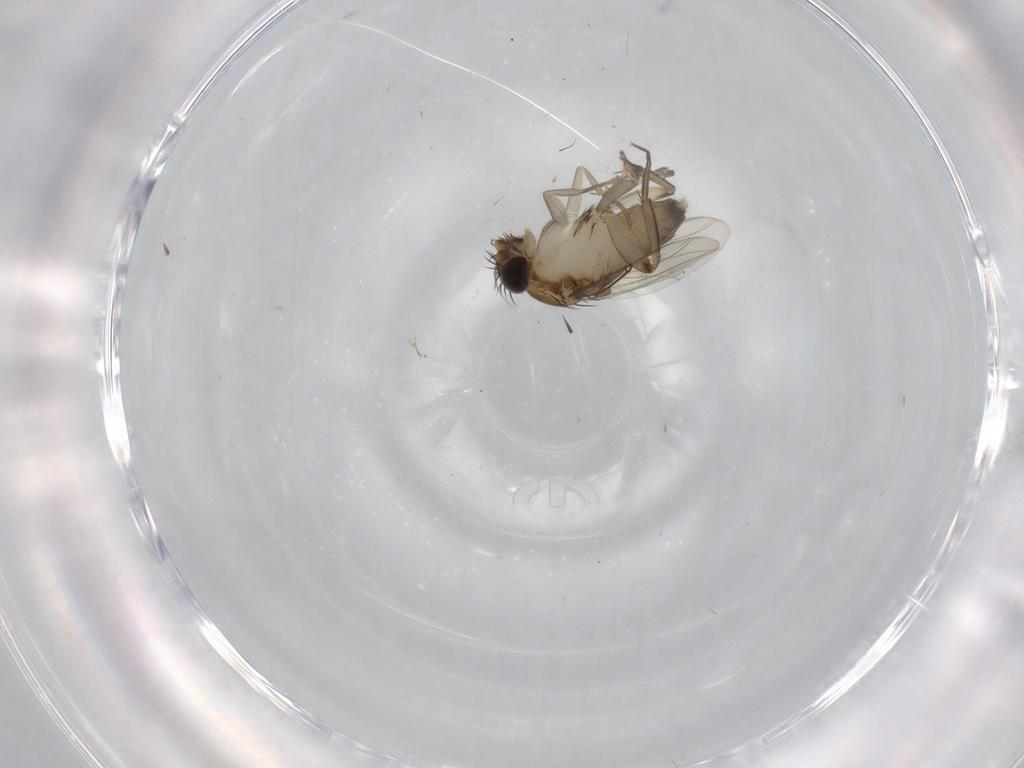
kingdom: Animalia
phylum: Arthropoda
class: Insecta
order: Diptera
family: Phoridae
